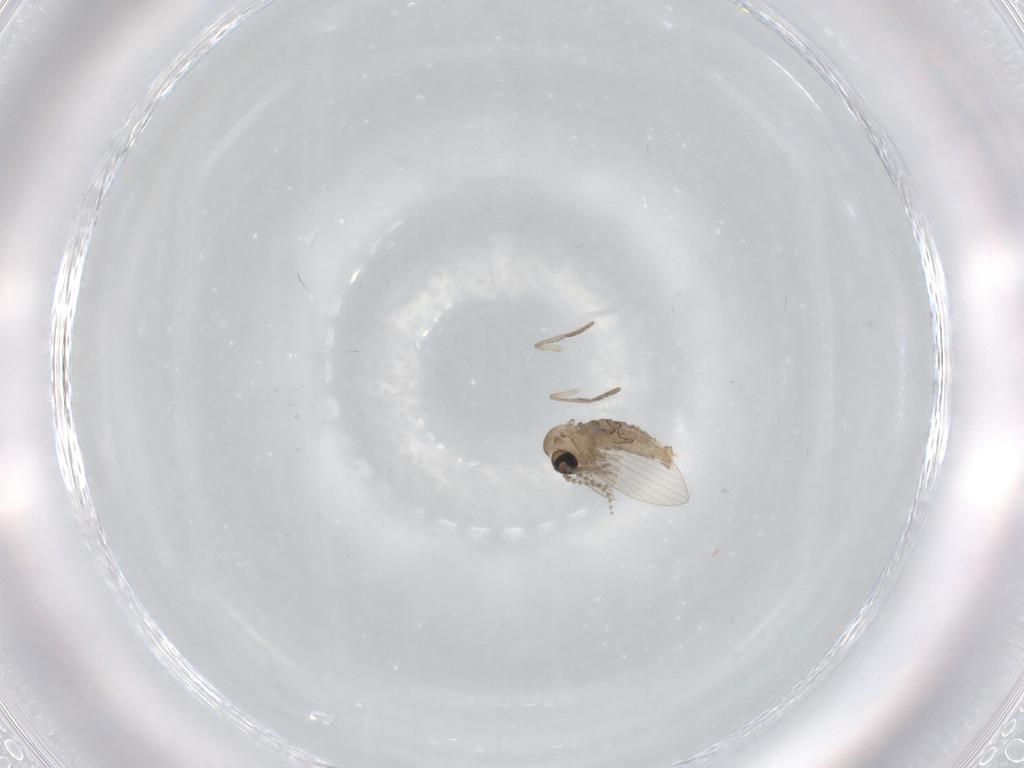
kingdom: Animalia
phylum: Arthropoda
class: Insecta
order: Diptera
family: Psychodidae
